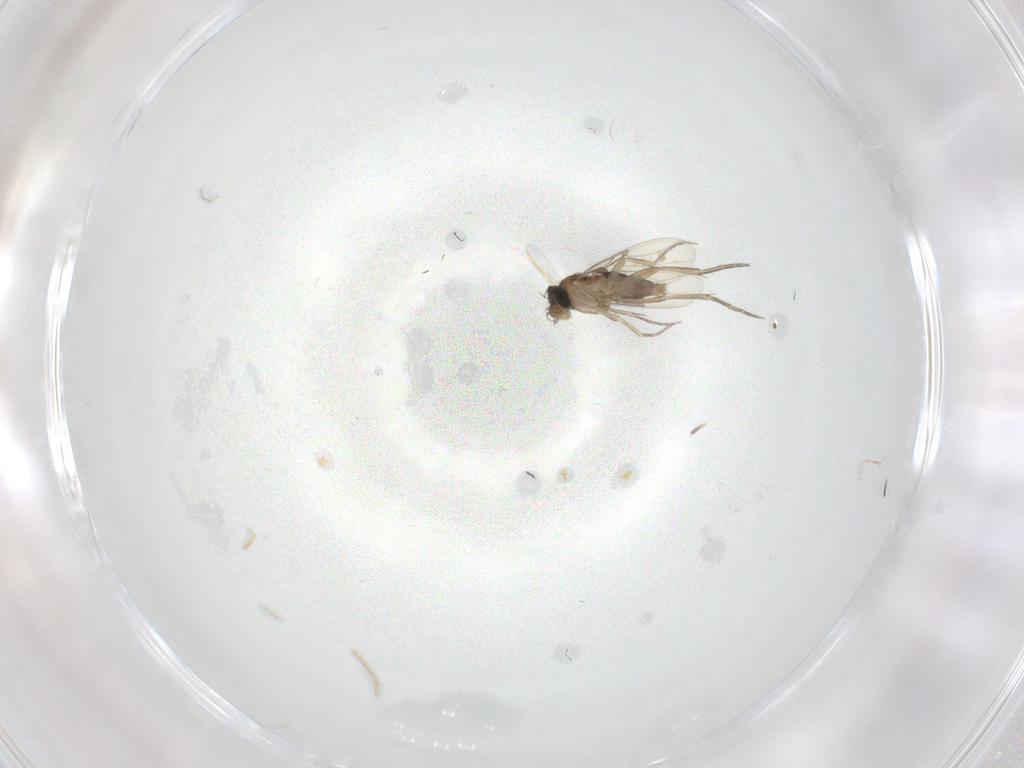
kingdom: Animalia
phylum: Arthropoda
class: Insecta
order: Diptera
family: Phoridae
